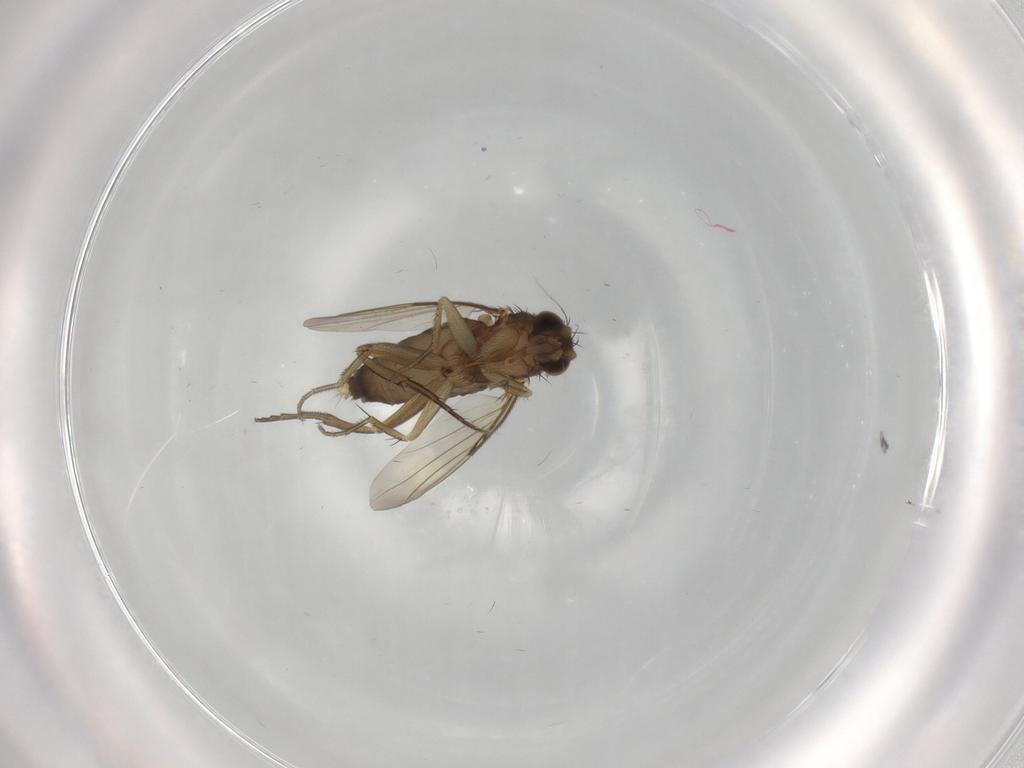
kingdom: Animalia
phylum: Arthropoda
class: Insecta
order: Diptera
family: Phoridae
